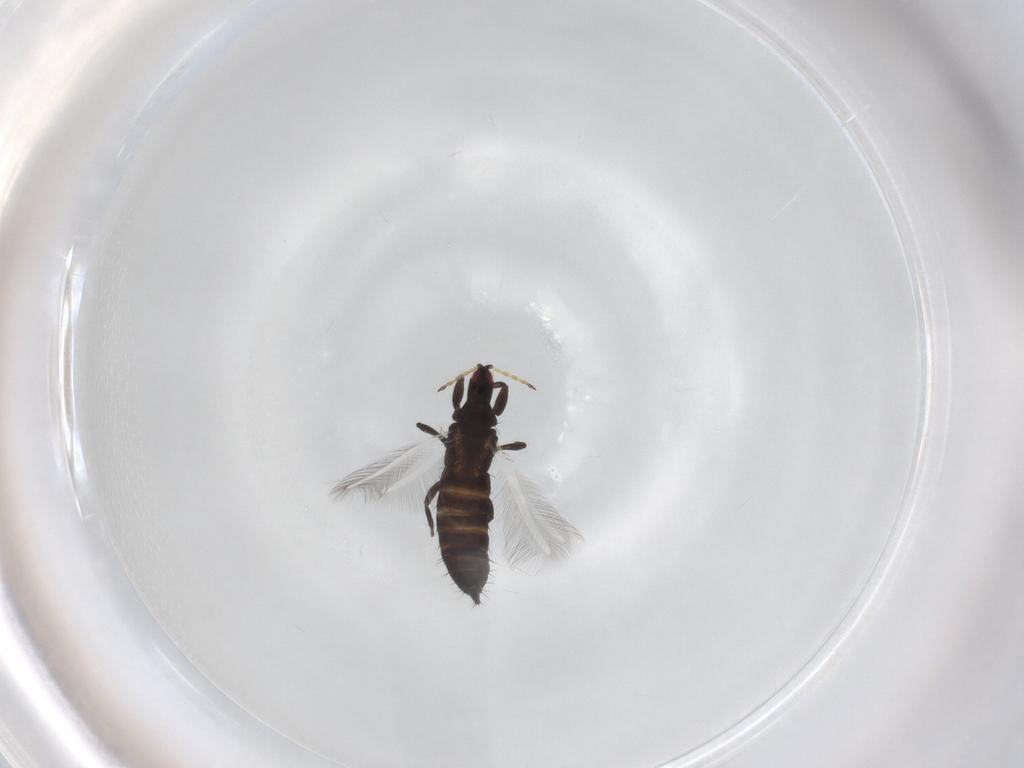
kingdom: Animalia
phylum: Arthropoda
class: Insecta
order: Thysanoptera
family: Phlaeothripidae
